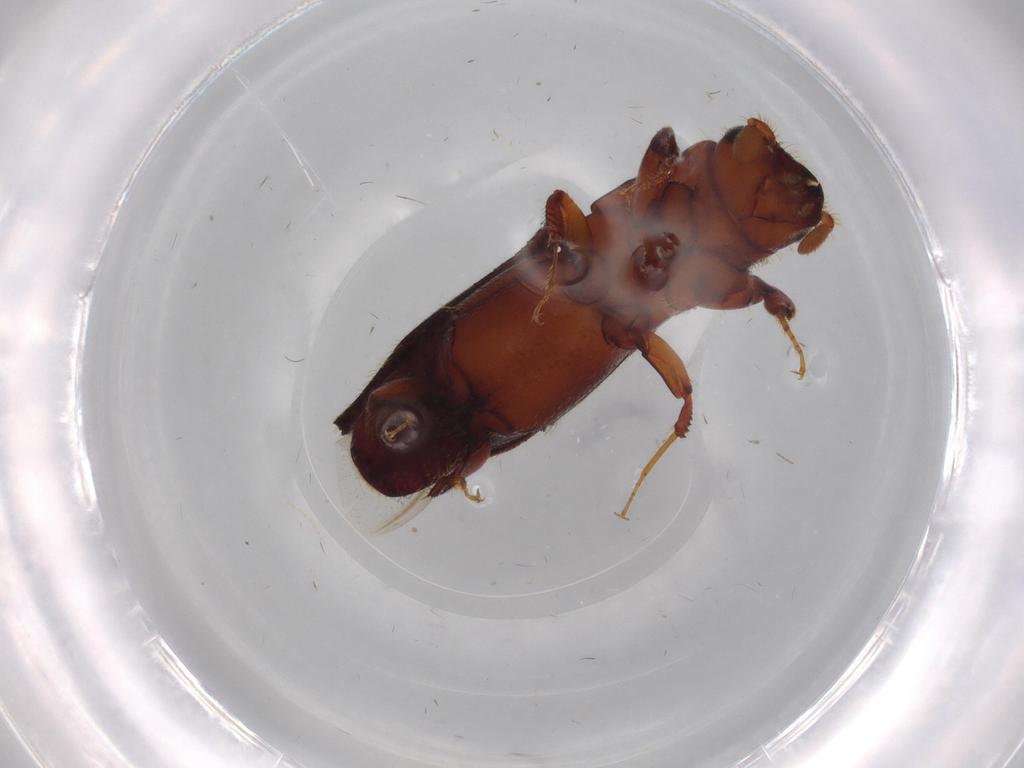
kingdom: Animalia
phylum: Arthropoda
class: Insecta
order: Coleoptera
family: Curculionidae
